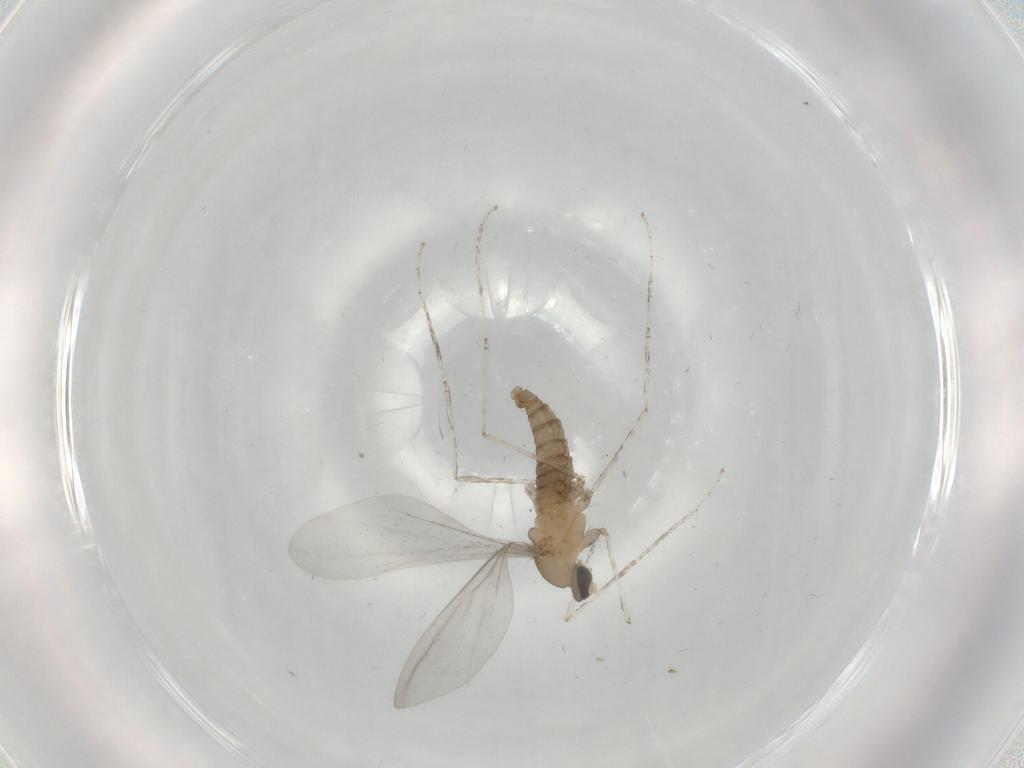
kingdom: Animalia
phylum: Arthropoda
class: Insecta
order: Diptera
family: Cecidomyiidae
